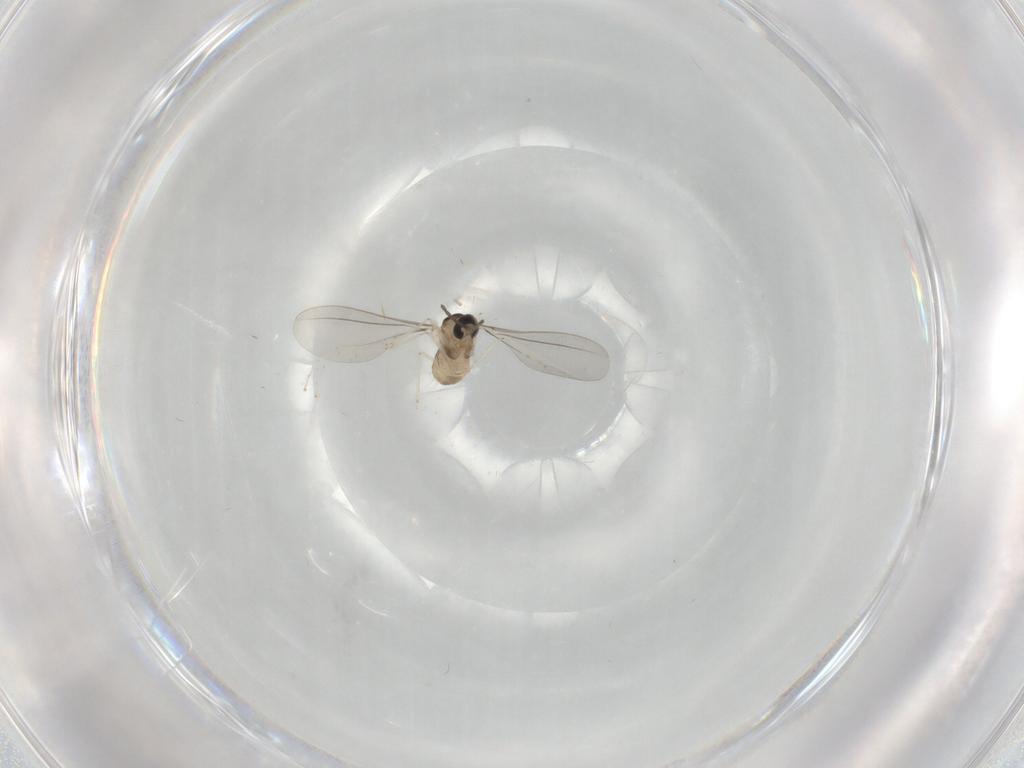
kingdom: Animalia
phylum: Arthropoda
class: Insecta
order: Diptera
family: Cecidomyiidae
